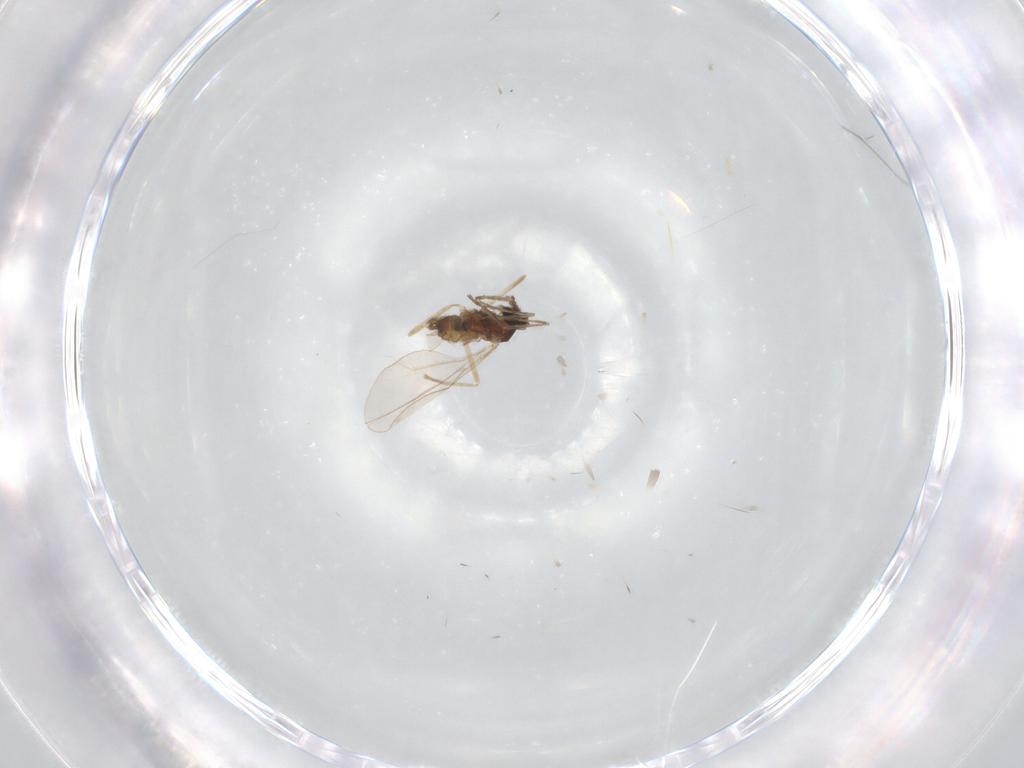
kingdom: Animalia
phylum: Arthropoda
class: Insecta
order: Diptera
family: Cecidomyiidae
